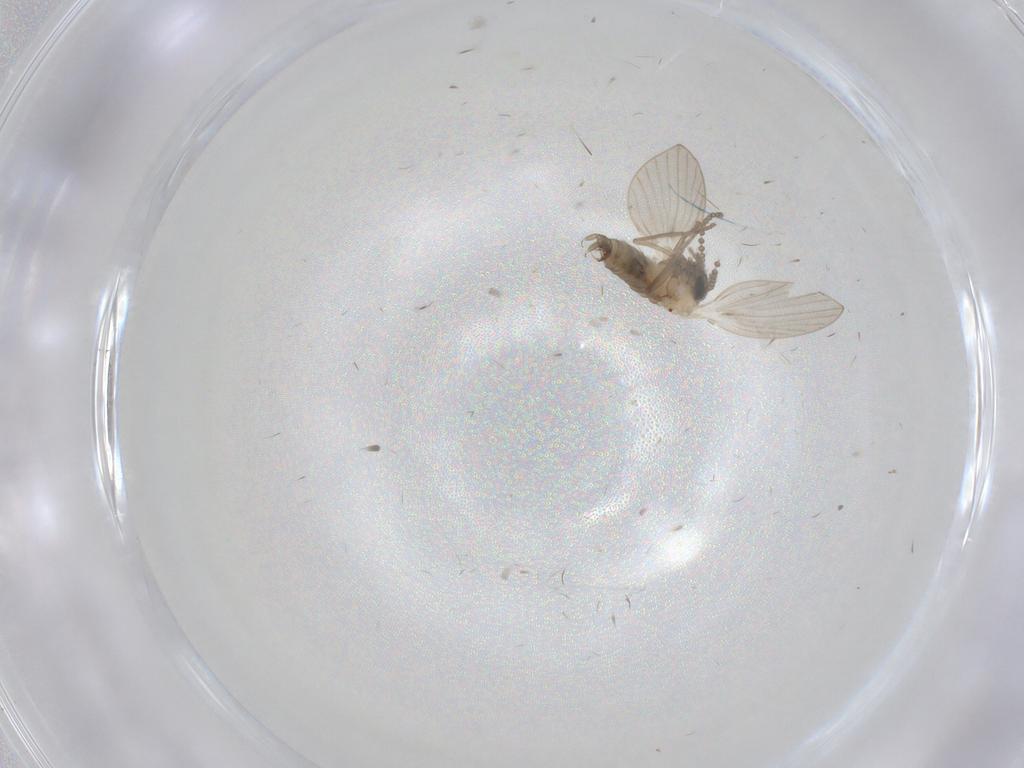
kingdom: Animalia
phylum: Arthropoda
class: Insecta
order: Diptera
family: Psychodidae
